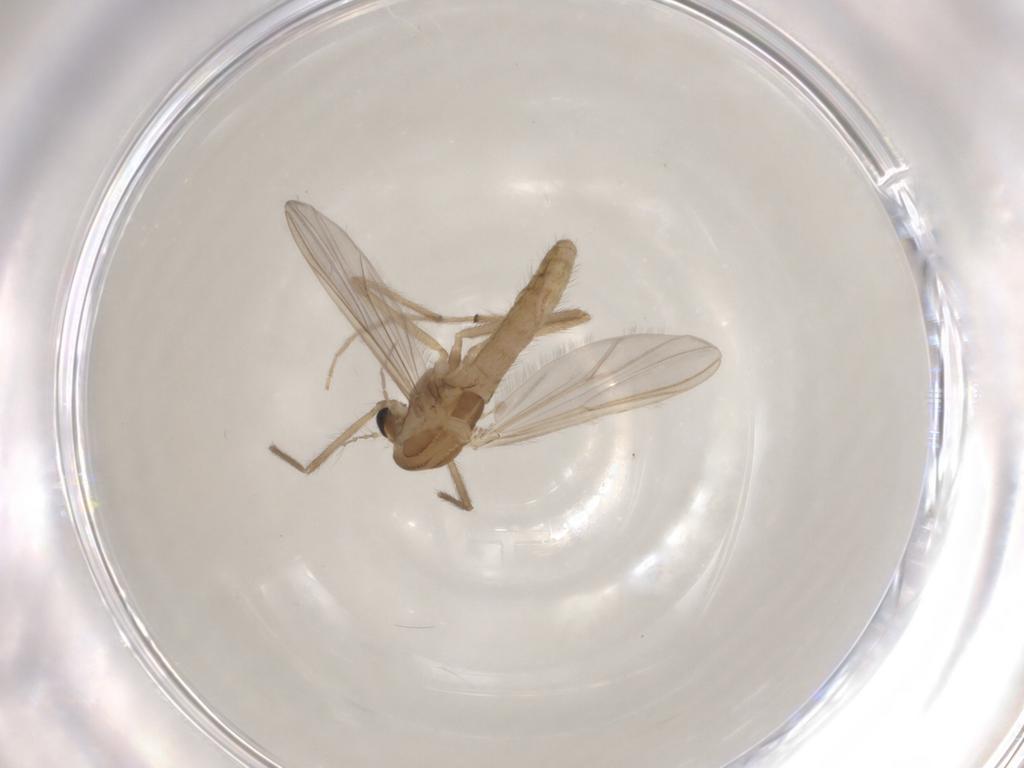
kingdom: Animalia
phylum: Arthropoda
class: Insecta
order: Diptera
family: Chironomidae
